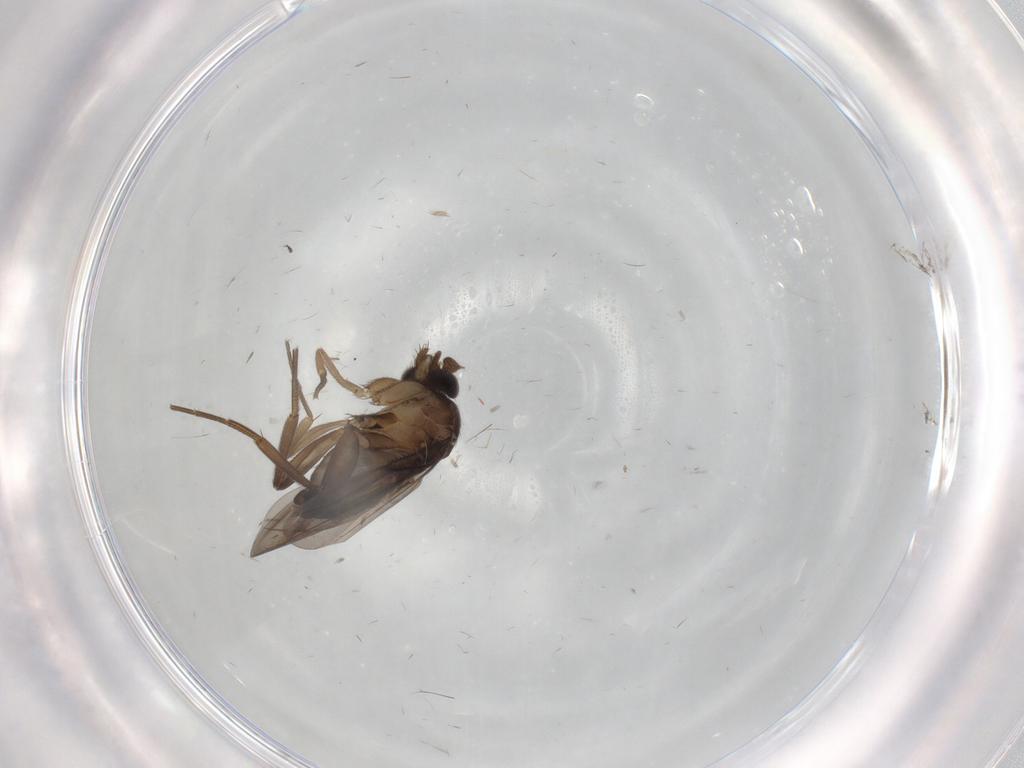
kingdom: Animalia
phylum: Arthropoda
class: Insecta
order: Diptera
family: Phoridae
